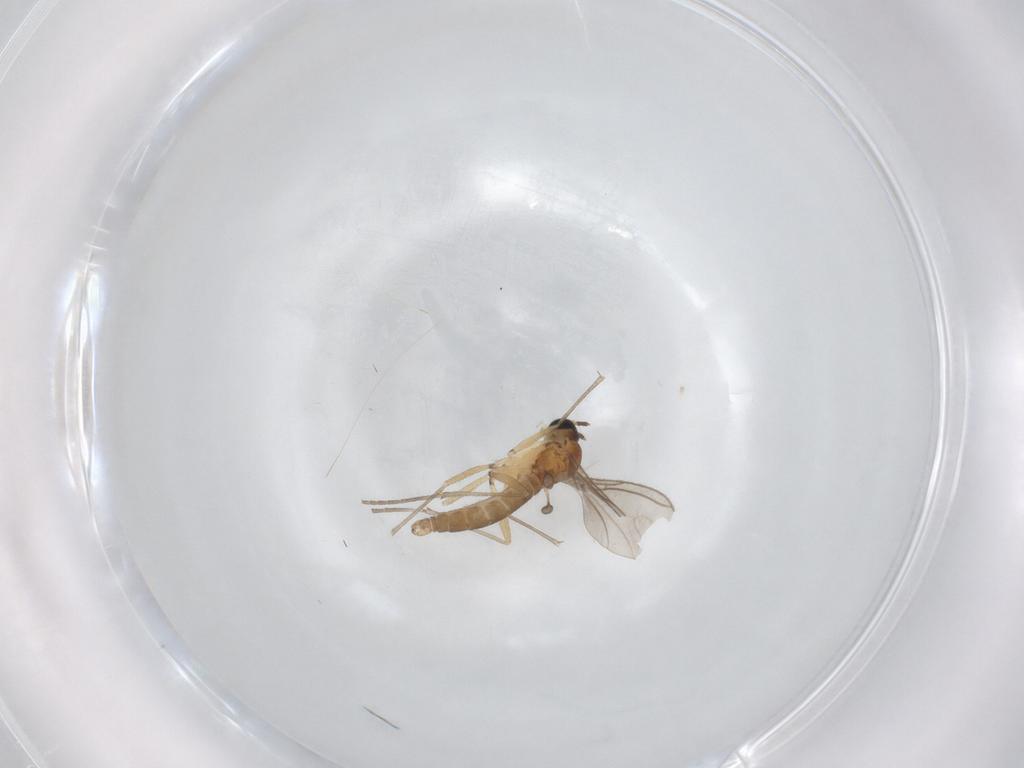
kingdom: Animalia
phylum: Arthropoda
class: Insecta
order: Diptera
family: Sciaridae
